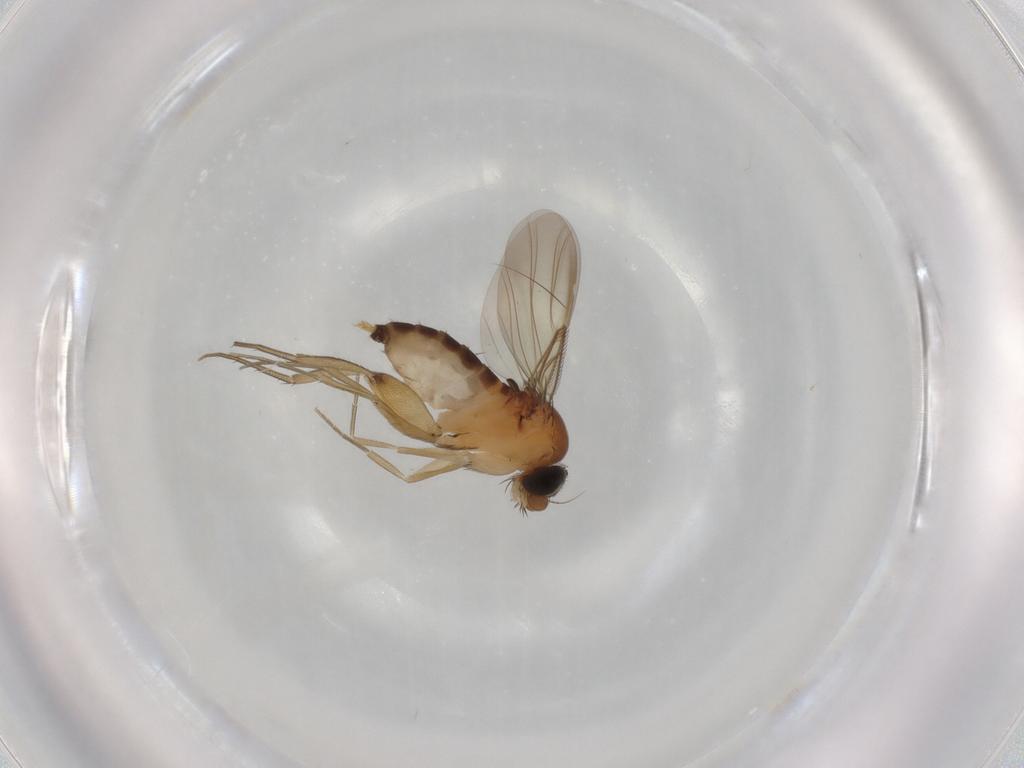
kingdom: Animalia
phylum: Arthropoda
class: Insecta
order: Diptera
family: Phoridae
